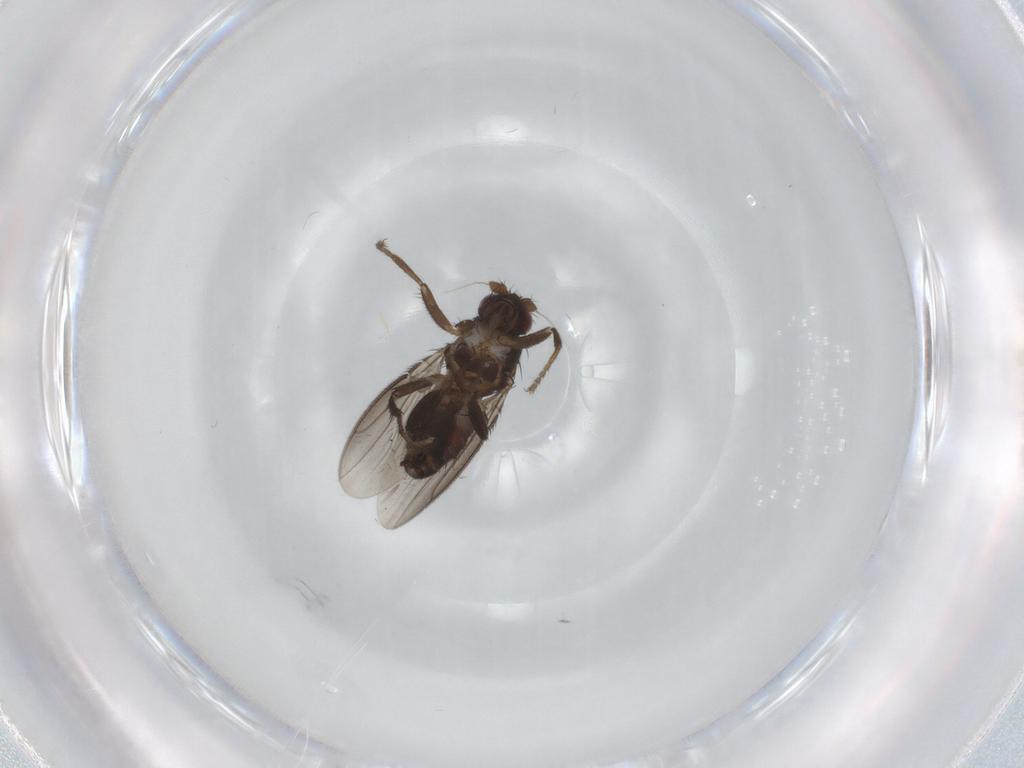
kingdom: Animalia
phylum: Arthropoda
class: Insecta
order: Diptera
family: Sphaeroceridae
